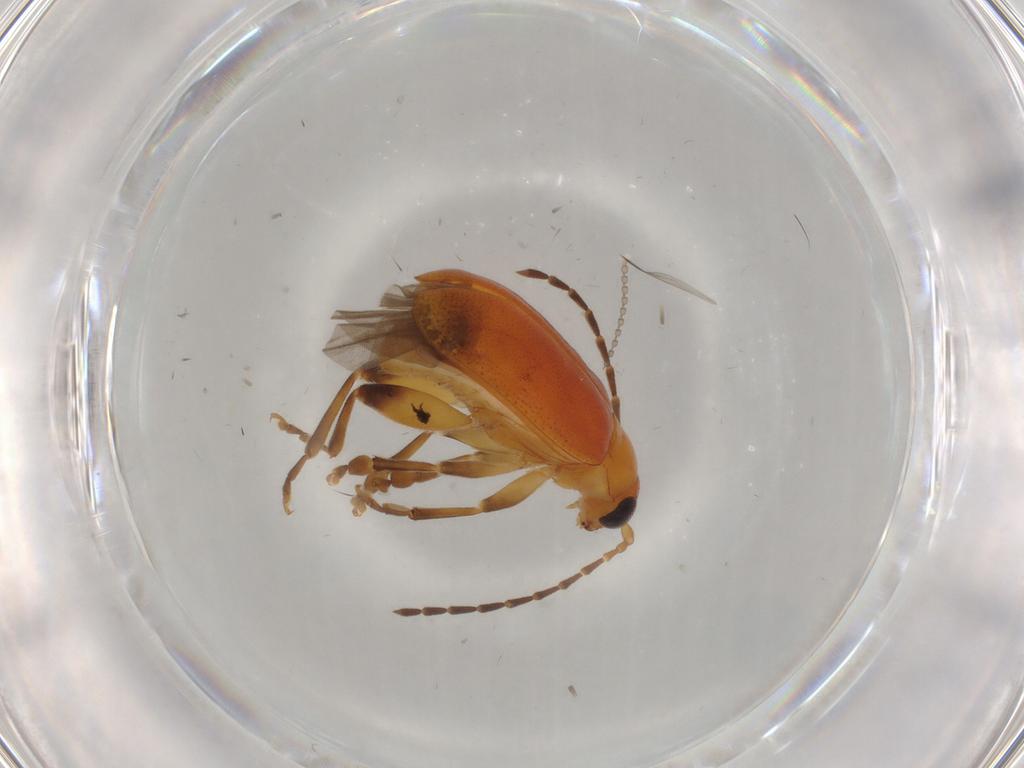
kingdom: Animalia
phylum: Arthropoda
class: Insecta
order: Coleoptera
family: Chrysomelidae
